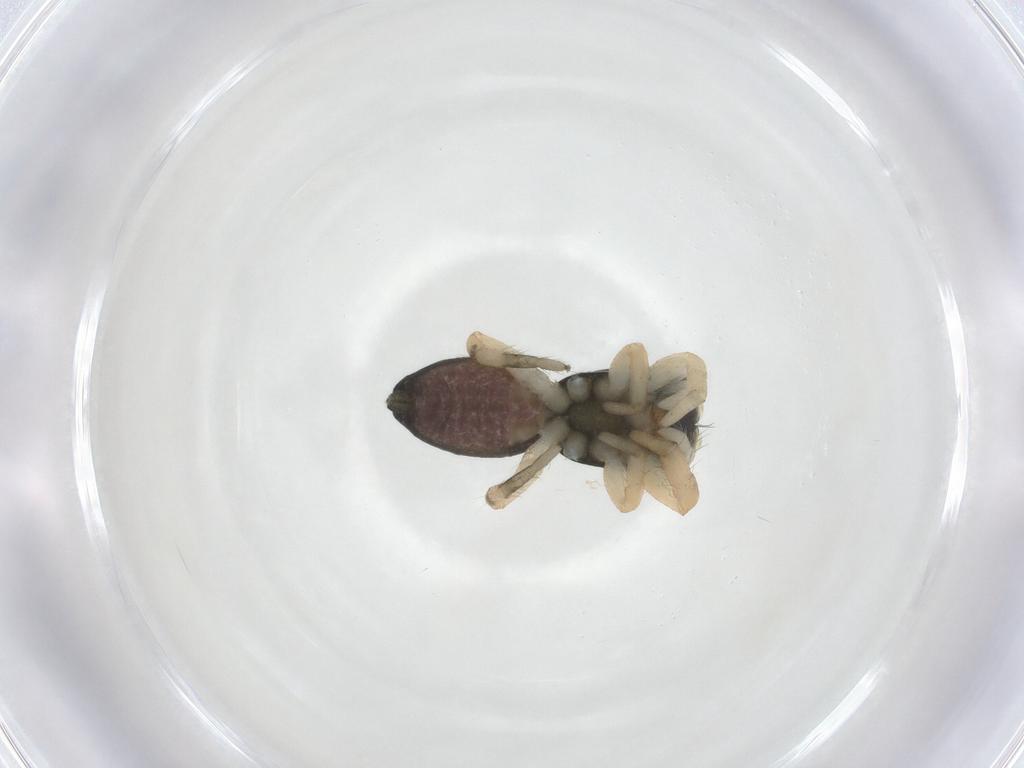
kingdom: Animalia
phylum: Arthropoda
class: Arachnida
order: Araneae
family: Salticidae
